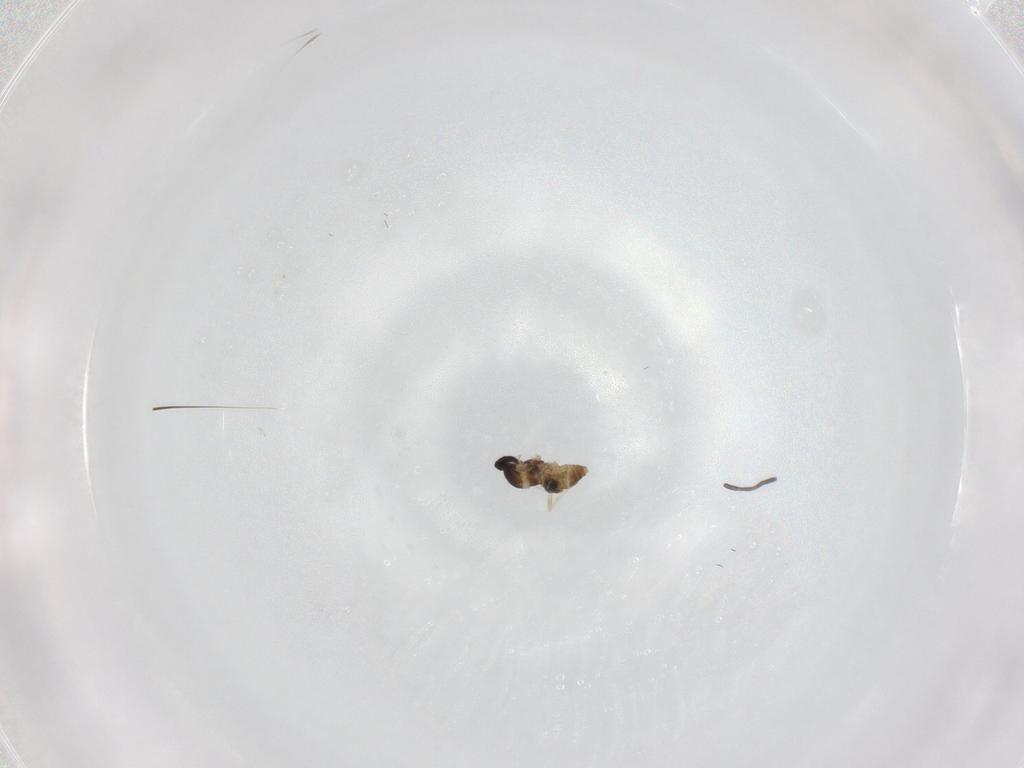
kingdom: Animalia
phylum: Arthropoda
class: Insecta
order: Diptera
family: Cecidomyiidae
